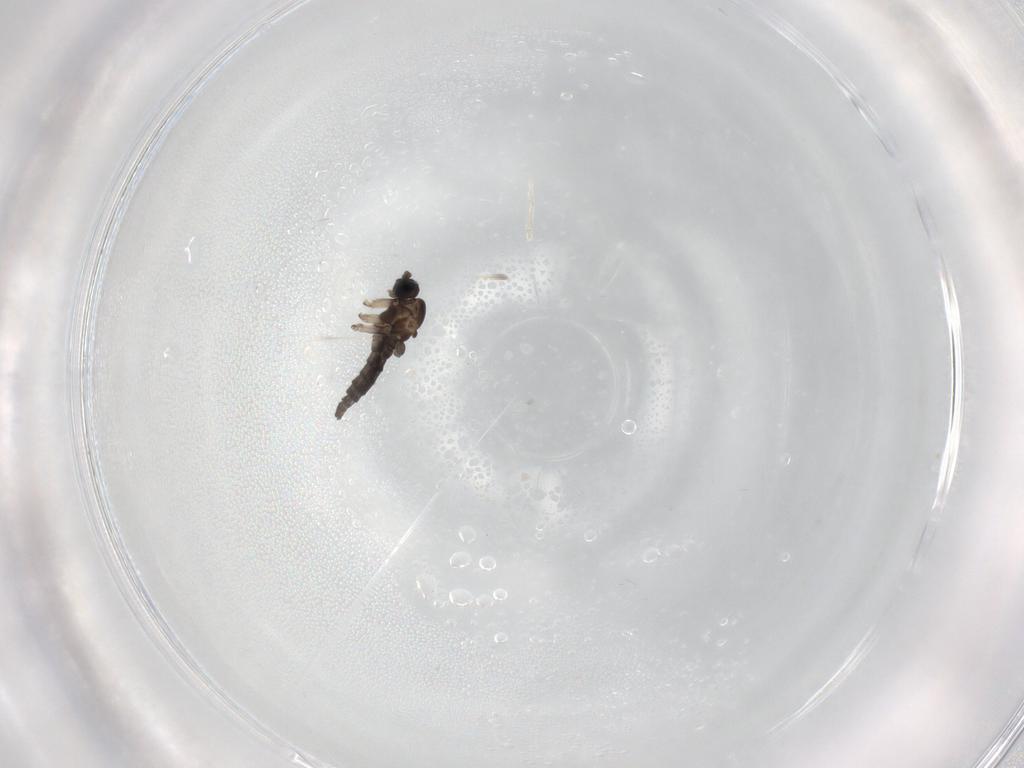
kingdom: Animalia
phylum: Arthropoda
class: Insecta
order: Diptera
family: Sciaridae
